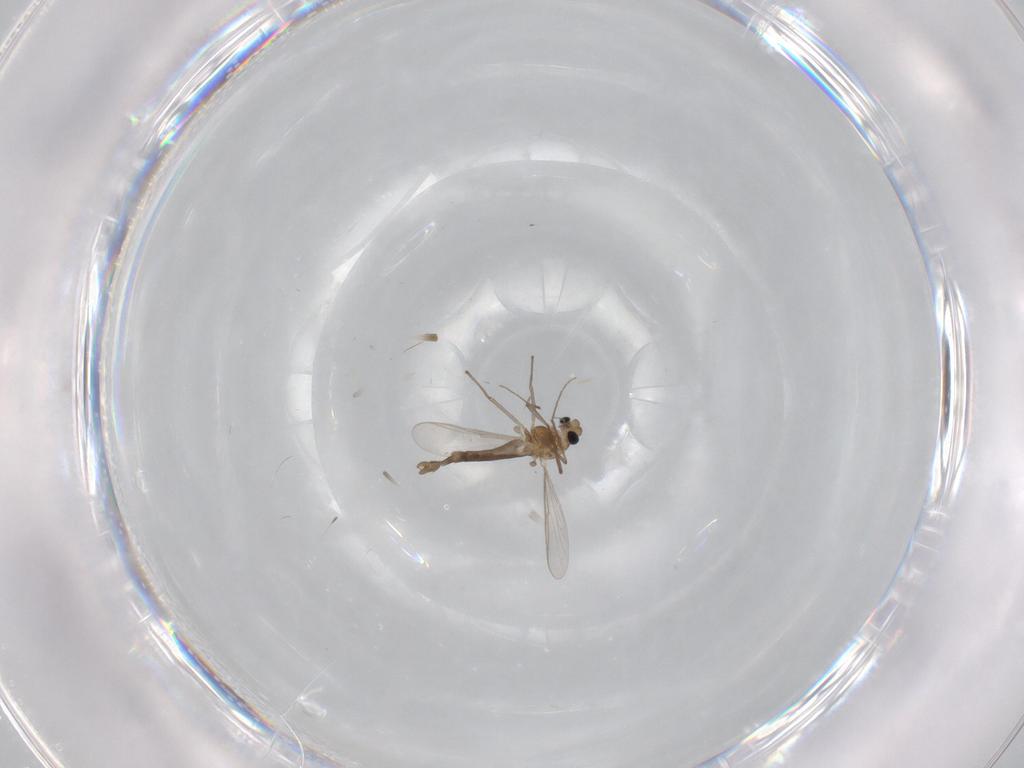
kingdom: Animalia
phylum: Arthropoda
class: Insecta
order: Diptera
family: Chironomidae
